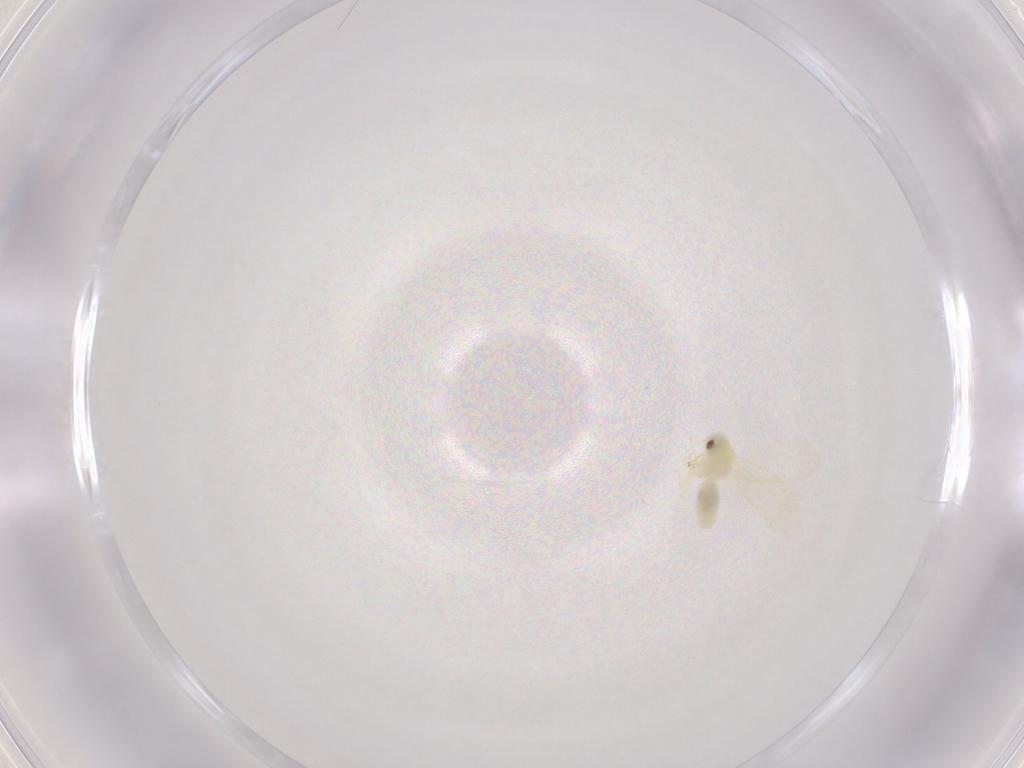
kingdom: Animalia
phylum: Arthropoda
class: Insecta
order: Hemiptera
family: Aleyrodidae
